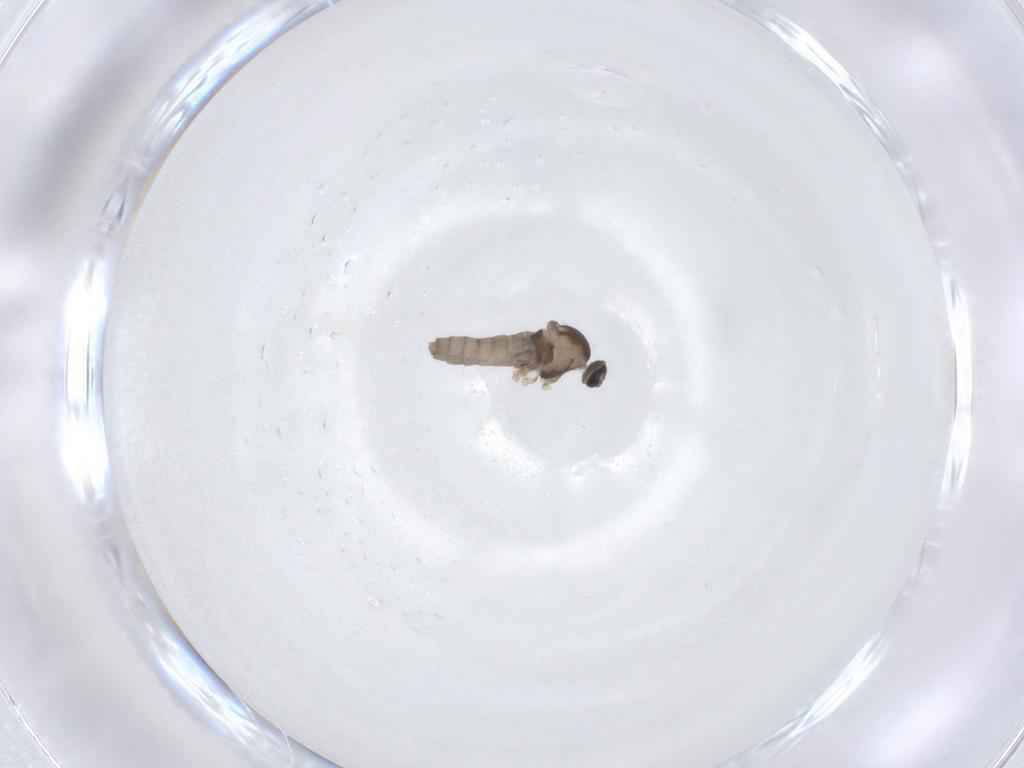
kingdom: Animalia
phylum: Arthropoda
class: Insecta
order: Diptera
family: Cecidomyiidae
